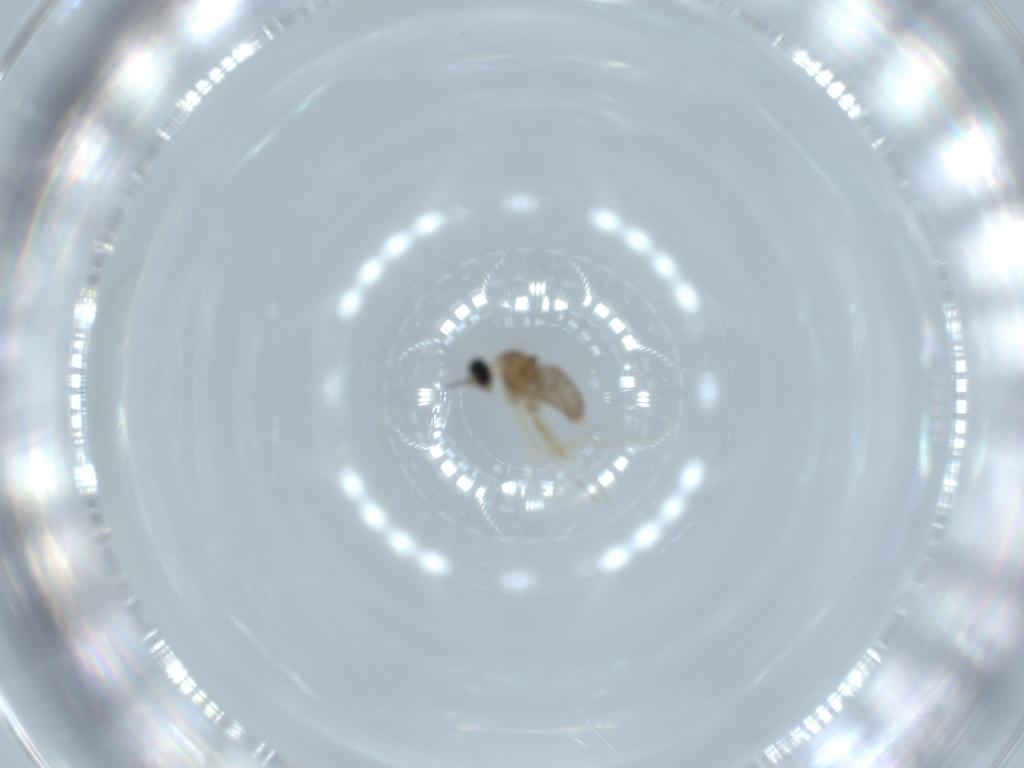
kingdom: Animalia
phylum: Arthropoda
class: Insecta
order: Diptera
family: Cecidomyiidae
